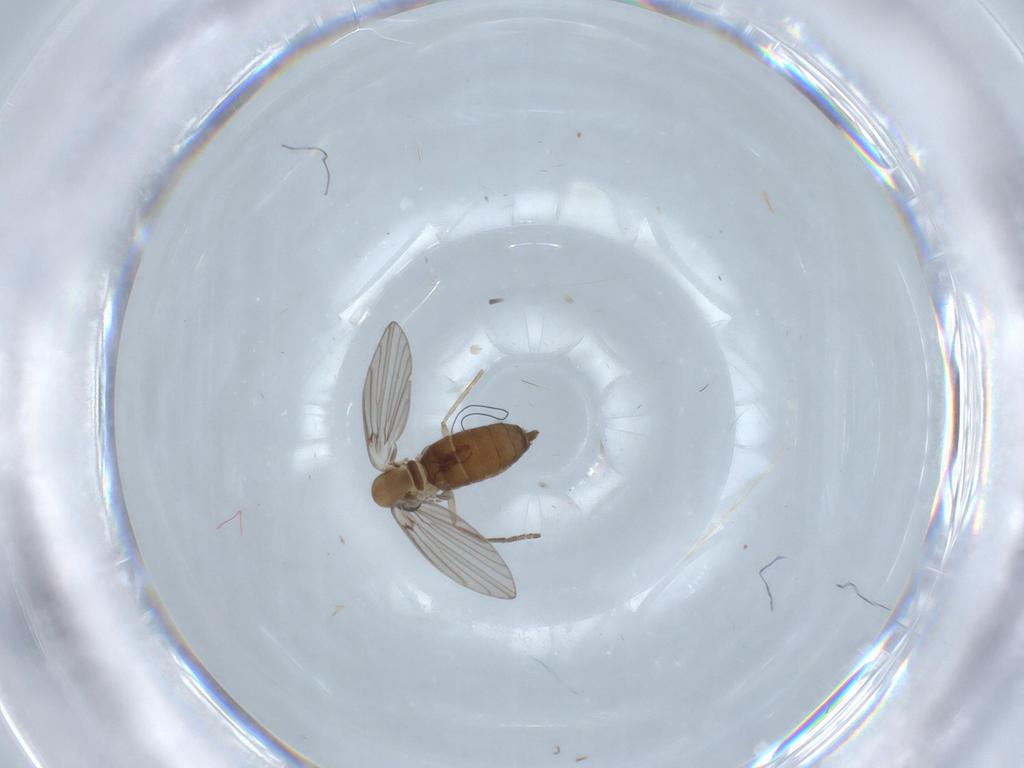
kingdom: Animalia
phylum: Arthropoda
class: Insecta
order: Diptera
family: Psychodidae
